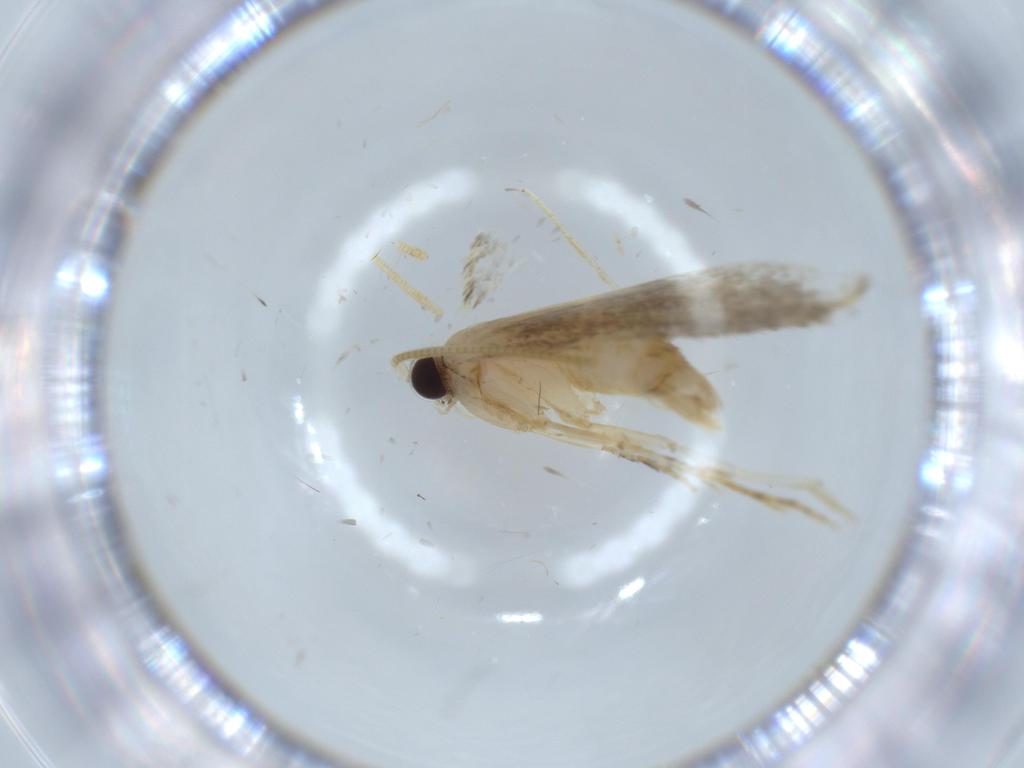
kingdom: Animalia
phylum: Arthropoda
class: Insecta
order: Lepidoptera
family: Tineidae
